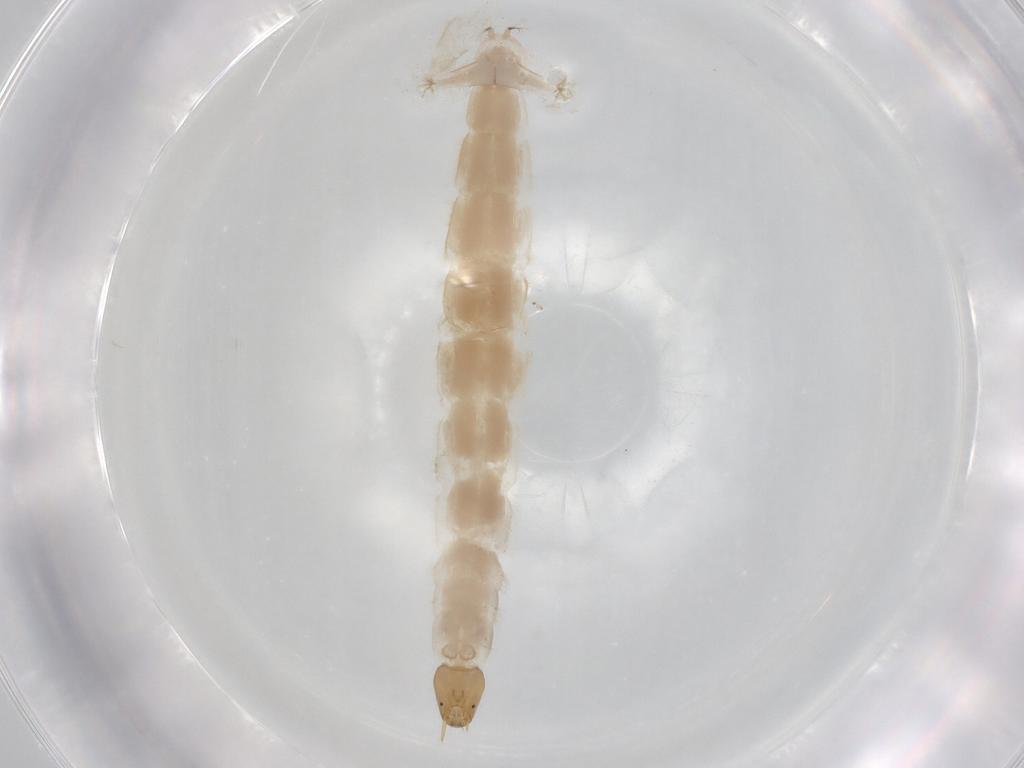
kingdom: Animalia
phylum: Arthropoda
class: Insecta
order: Diptera
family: Chironomidae
